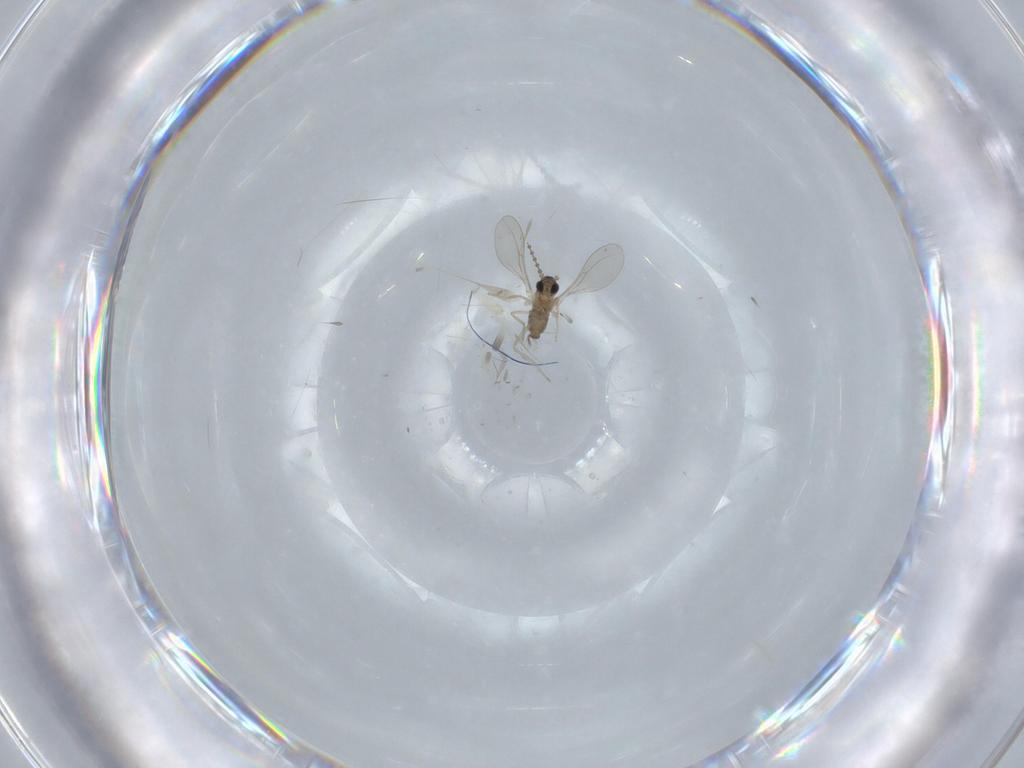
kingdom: Animalia
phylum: Arthropoda
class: Insecta
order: Diptera
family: Cecidomyiidae
